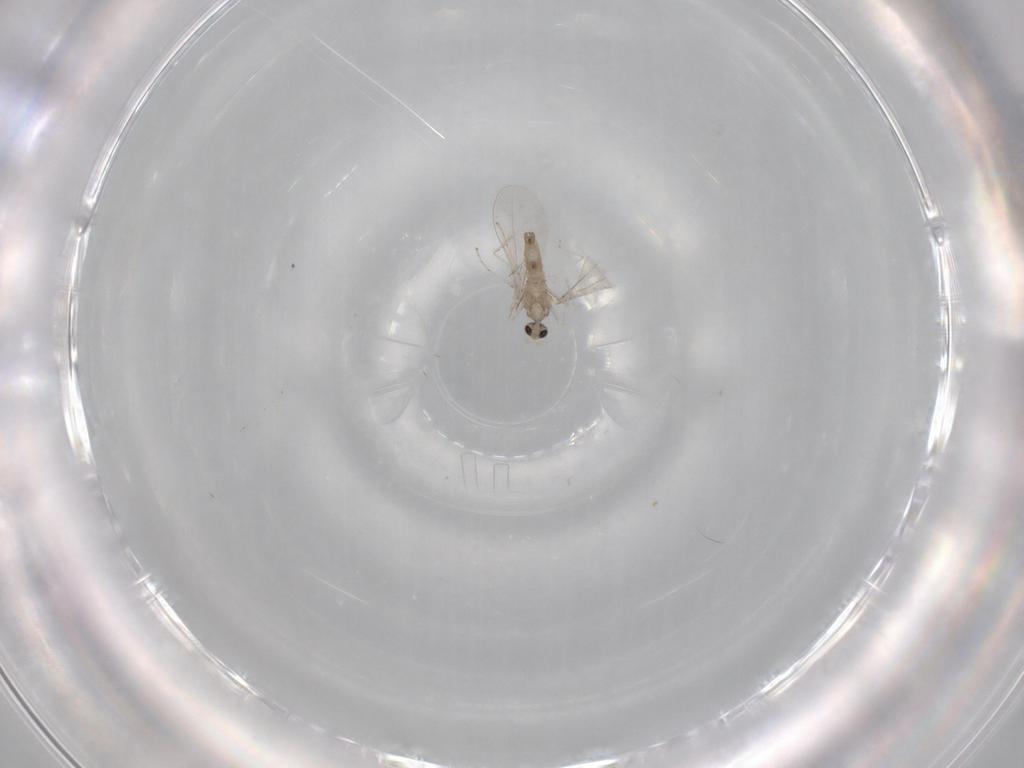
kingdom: Animalia
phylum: Arthropoda
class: Insecta
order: Diptera
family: Cecidomyiidae
